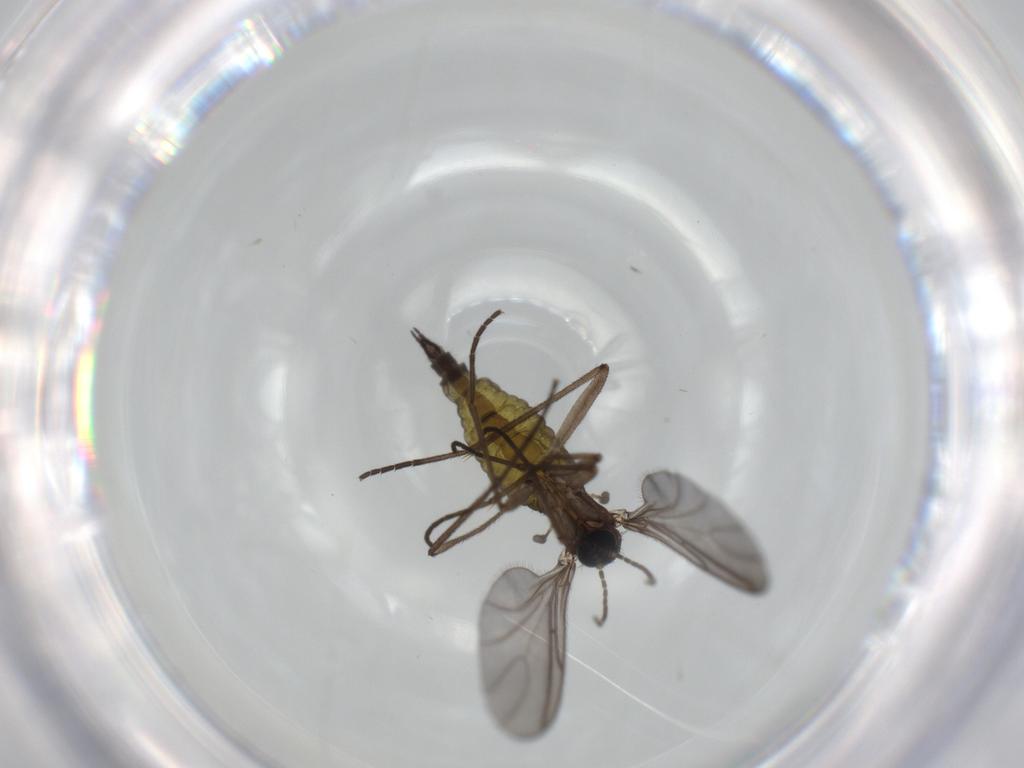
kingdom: Animalia
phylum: Arthropoda
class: Insecta
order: Diptera
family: Sciaridae
